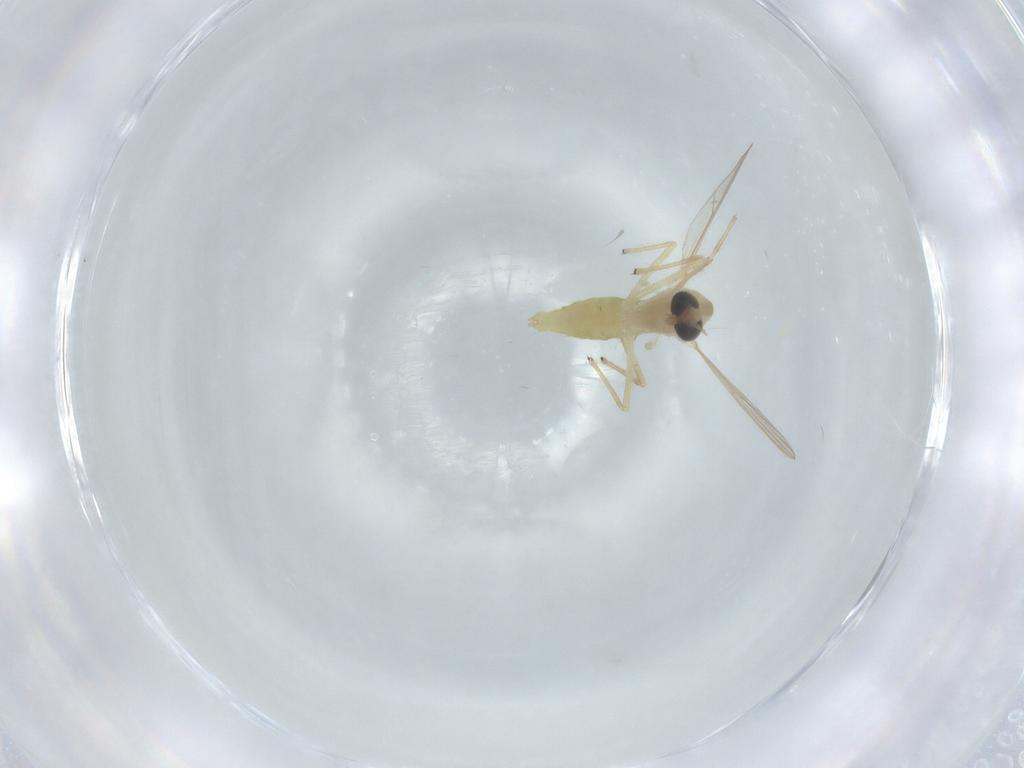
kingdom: Animalia
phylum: Arthropoda
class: Insecta
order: Diptera
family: Chironomidae
